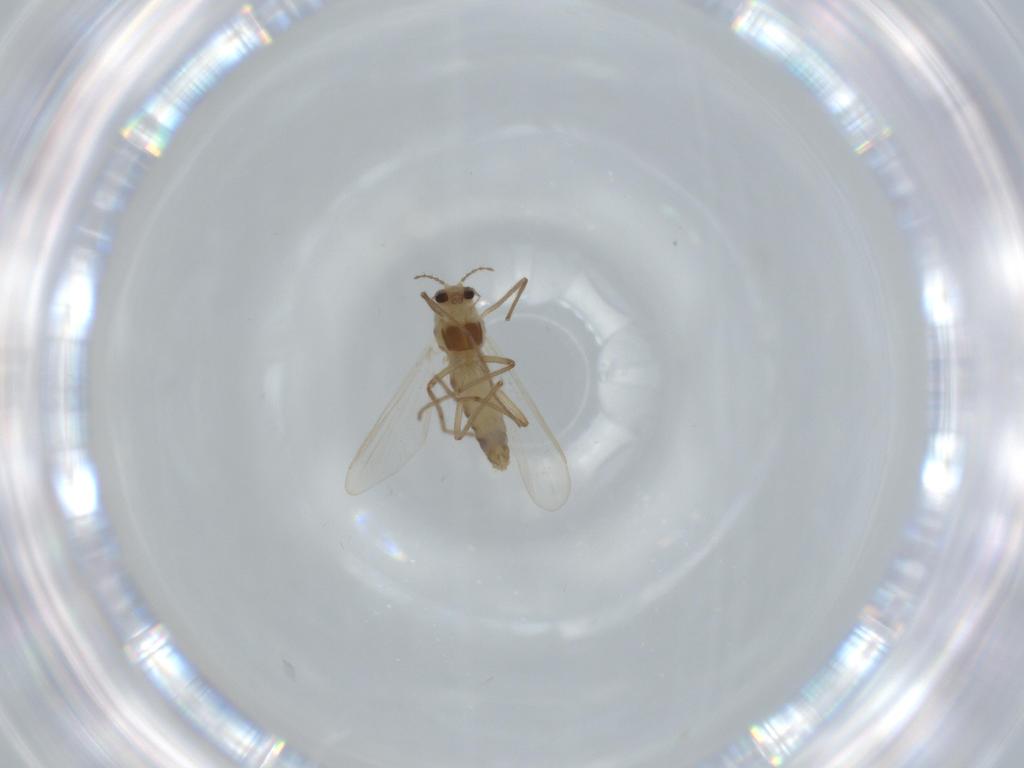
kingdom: Animalia
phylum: Arthropoda
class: Insecta
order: Diptera
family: Chironomidae
